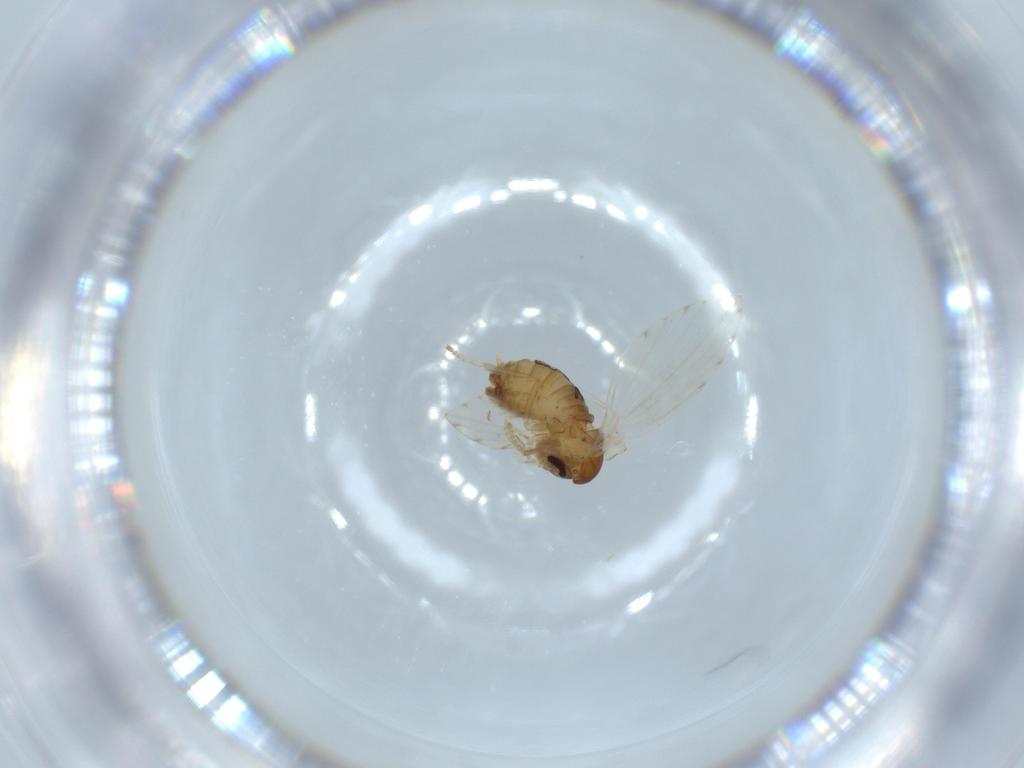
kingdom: Animalia
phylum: Arthropoda
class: Insecta
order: Diptera
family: Psychodidae
